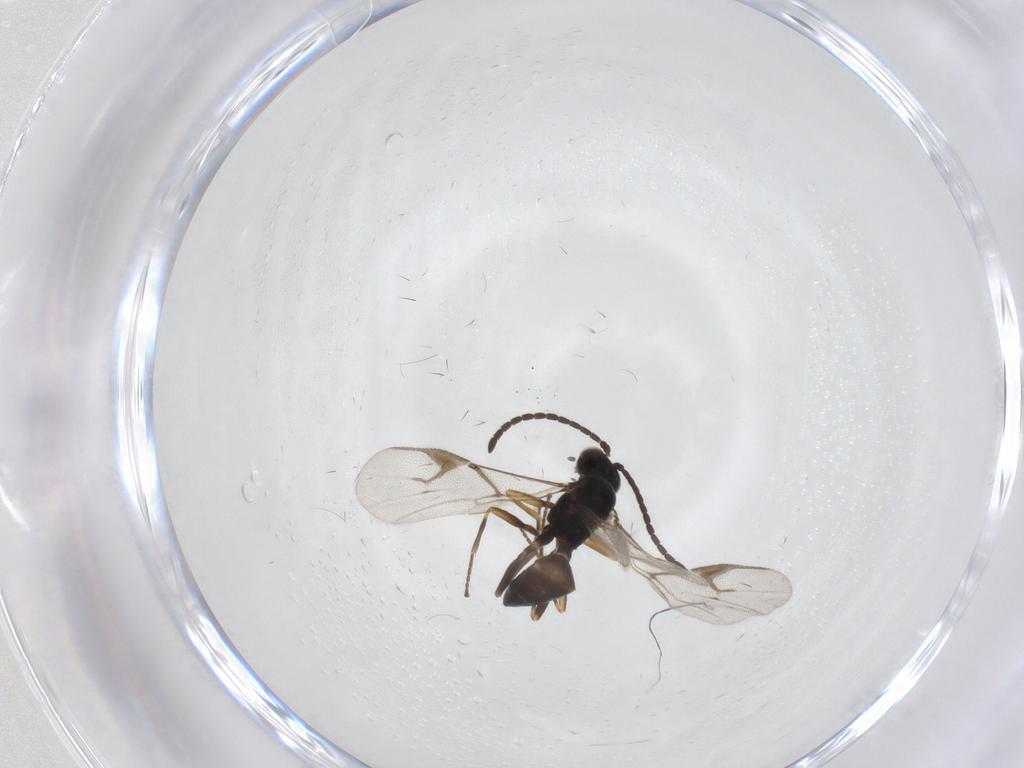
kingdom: Animalia
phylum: Arthropoda
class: Insecta
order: Hymenoptera
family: Braconidae
